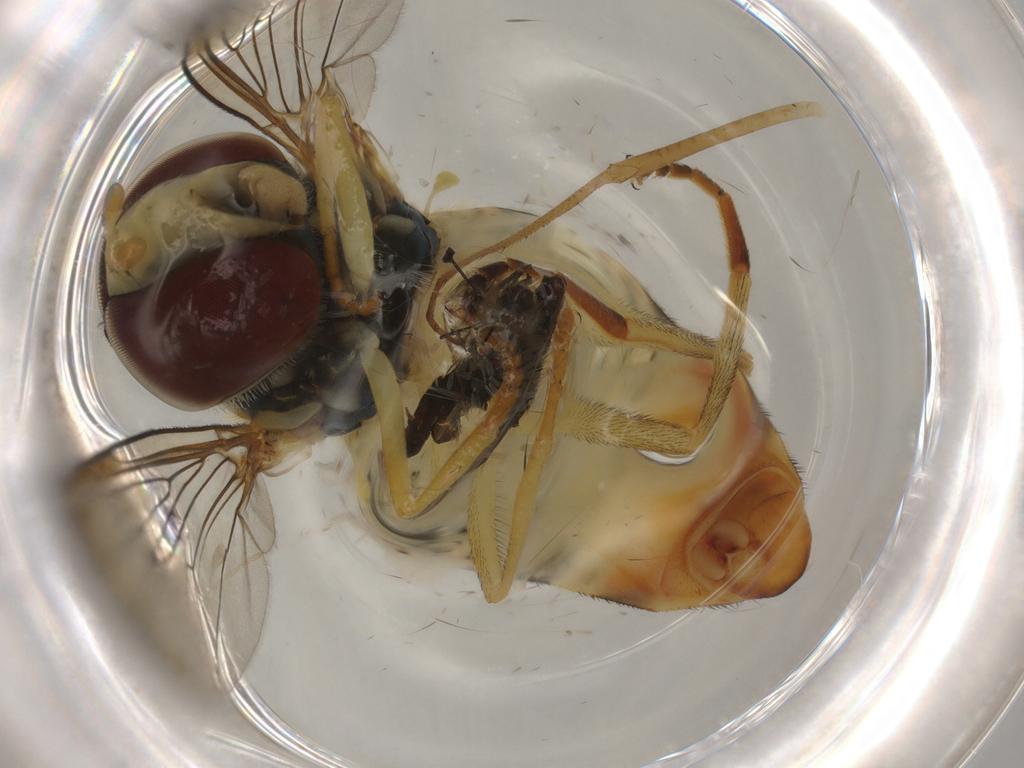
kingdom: Animalia
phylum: Arthropoda
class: Insecta
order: Diptera
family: Syrphidae
